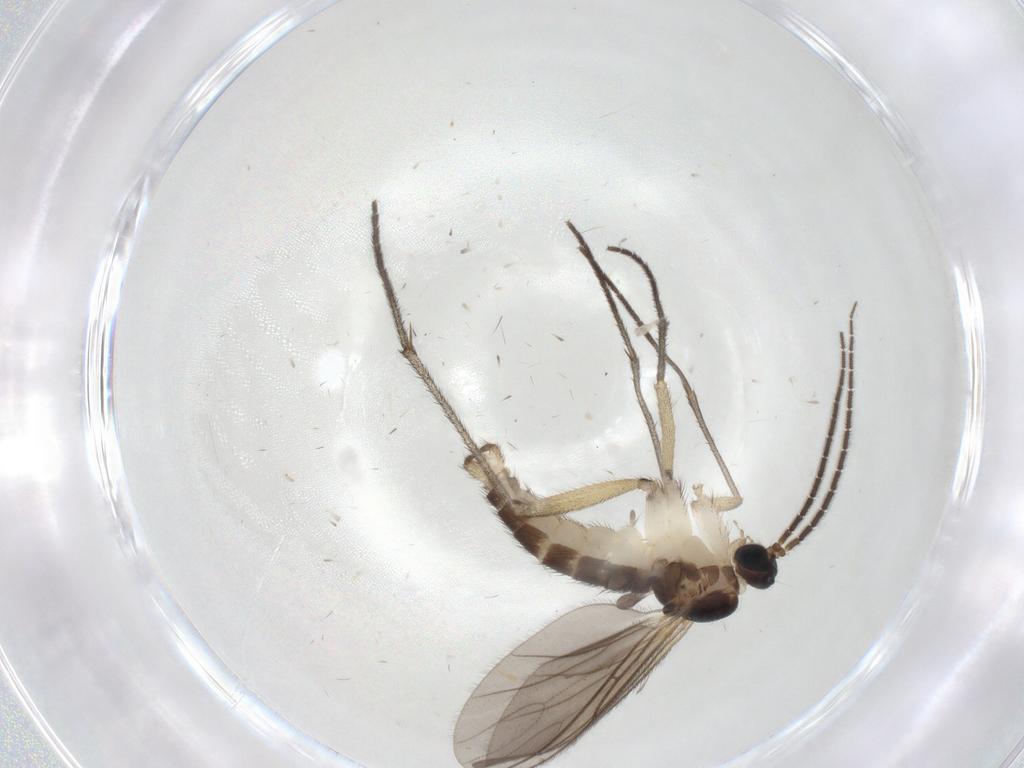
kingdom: Animalia
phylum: Arthropoda
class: Insecta
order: Diptera
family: Sciaridae
